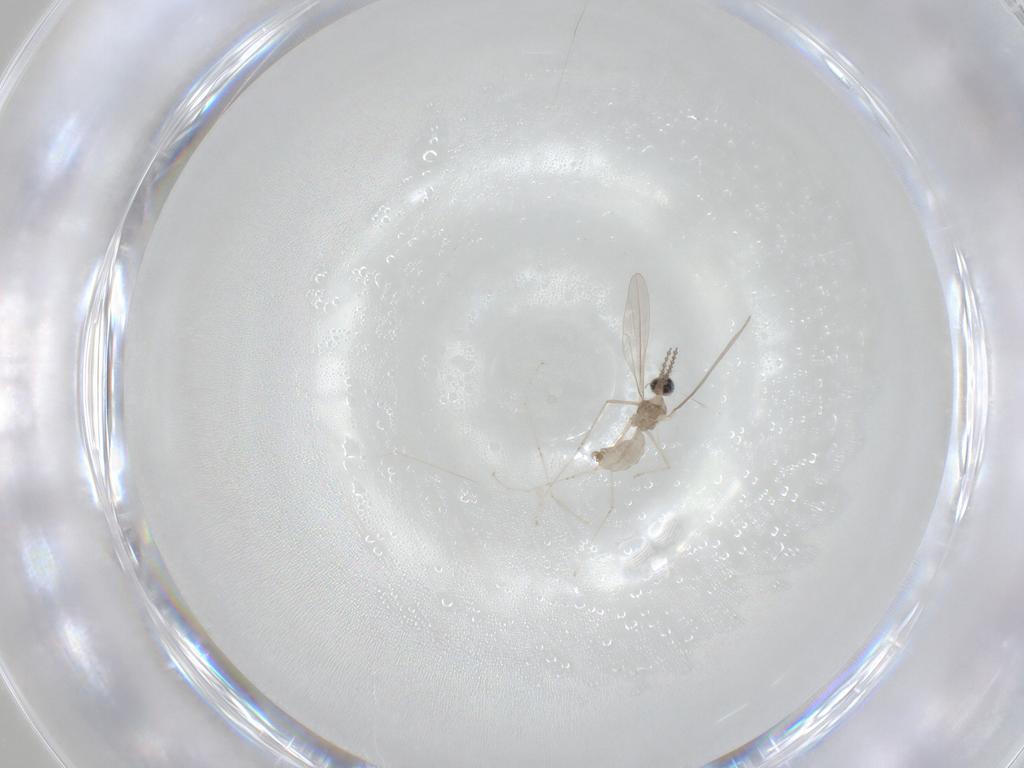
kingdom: Animalia
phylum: Arthropoda
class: Insecta
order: Diptera
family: Cecidomyiidae
